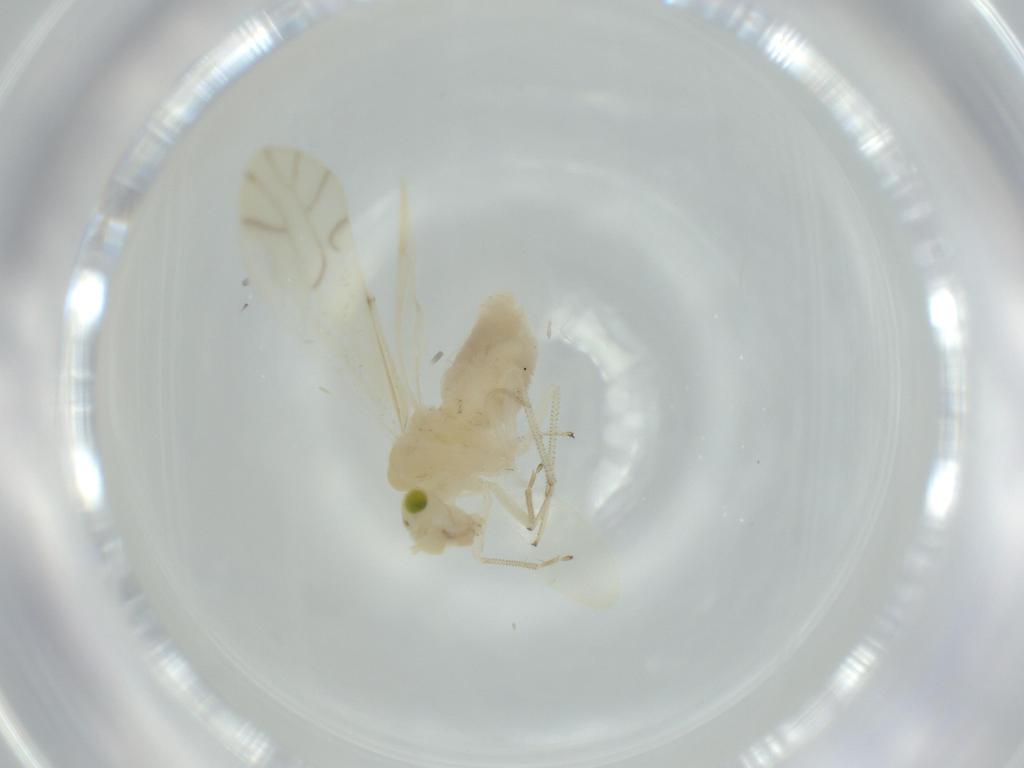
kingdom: Animalia
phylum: Arthropoda
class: Insecta
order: Psocodea
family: Caeciliusidae
